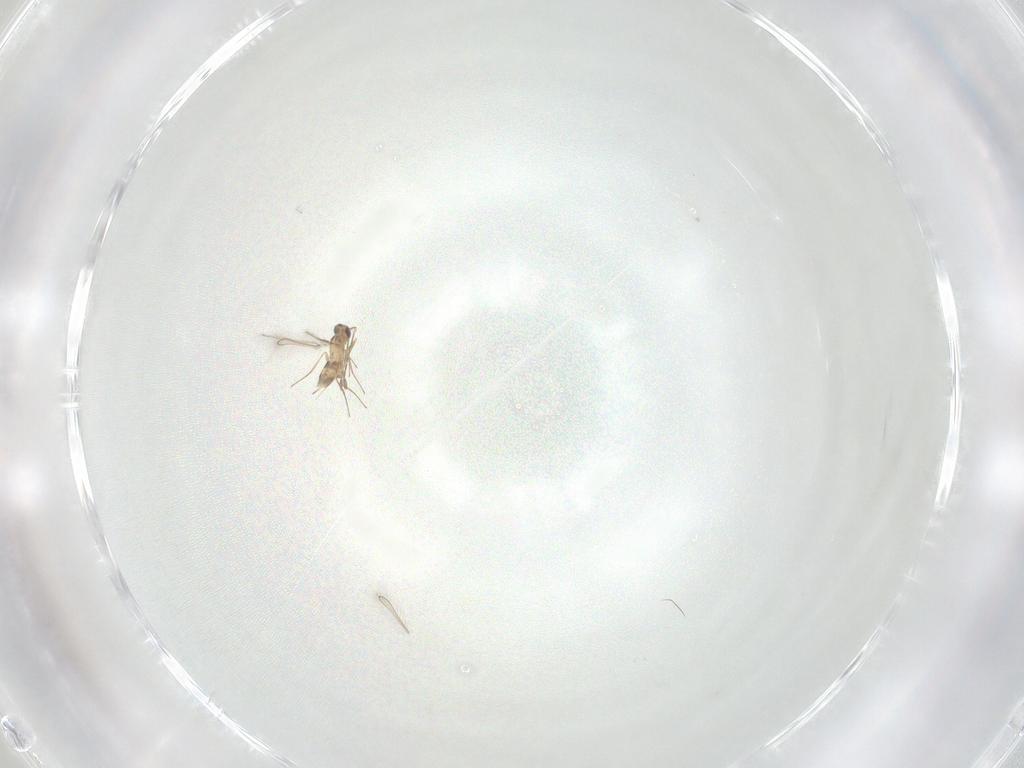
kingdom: Animalia
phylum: Arthropoda
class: Insecta
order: Hymenoptera
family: Mymaridae
